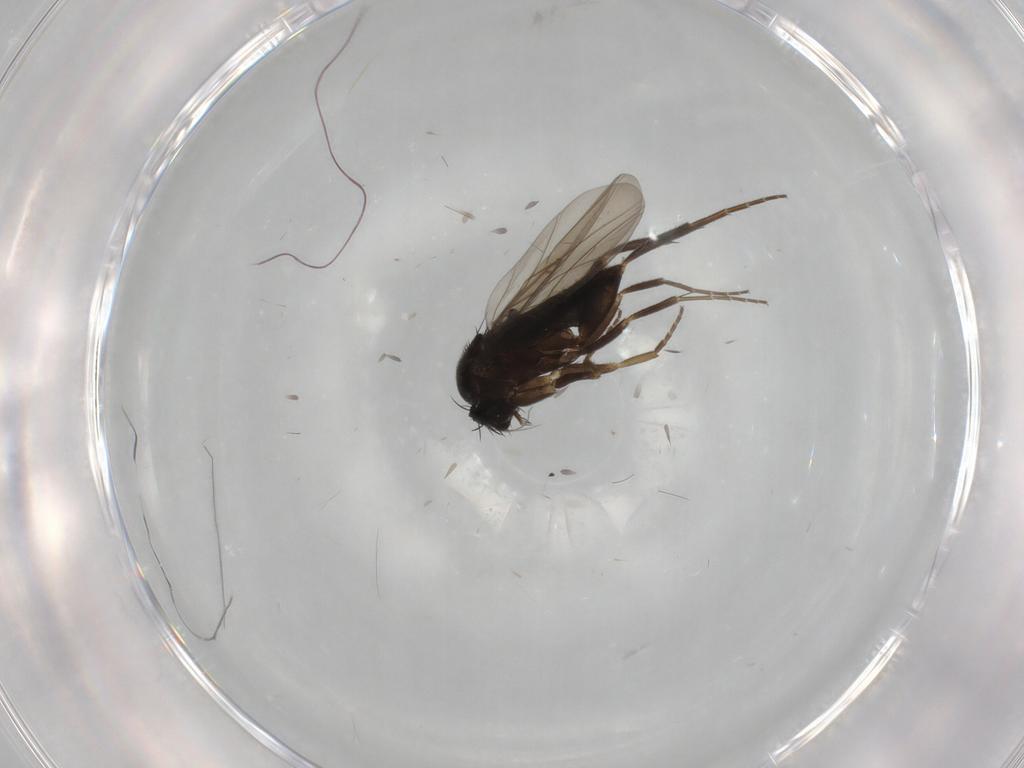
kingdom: Animalia
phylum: Arthropoda
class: Insecta
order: Diptera
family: Phoridae
